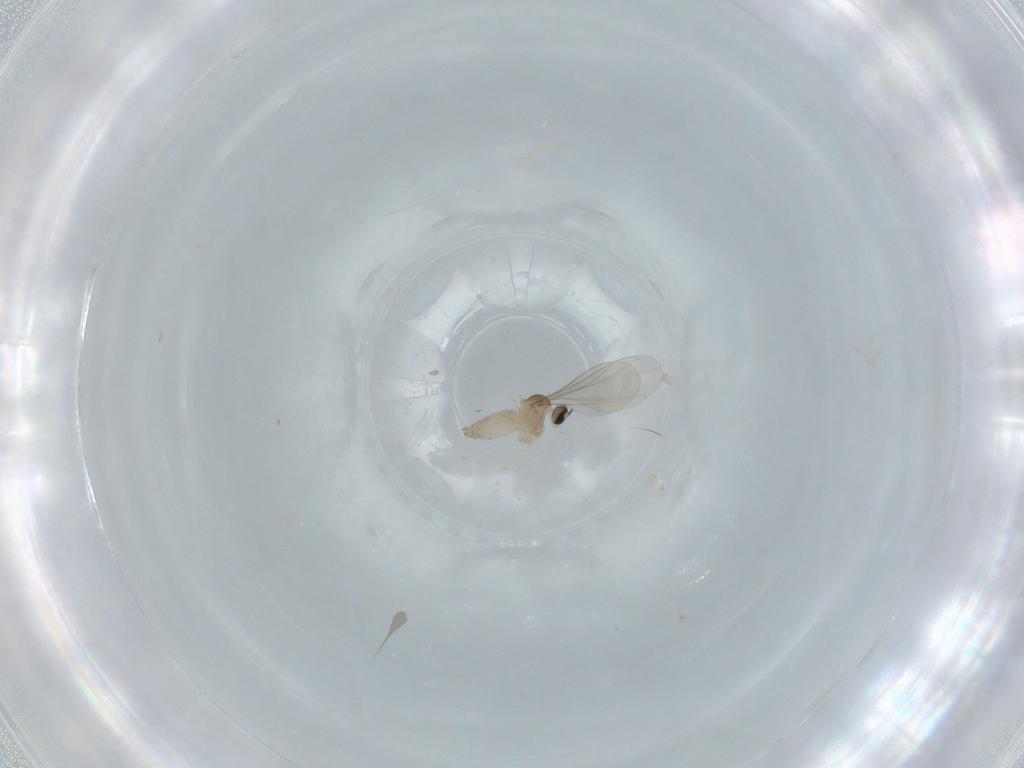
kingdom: Animalia
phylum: Arthropoda
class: Insecta
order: Diptera
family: Cecidomyiidae
